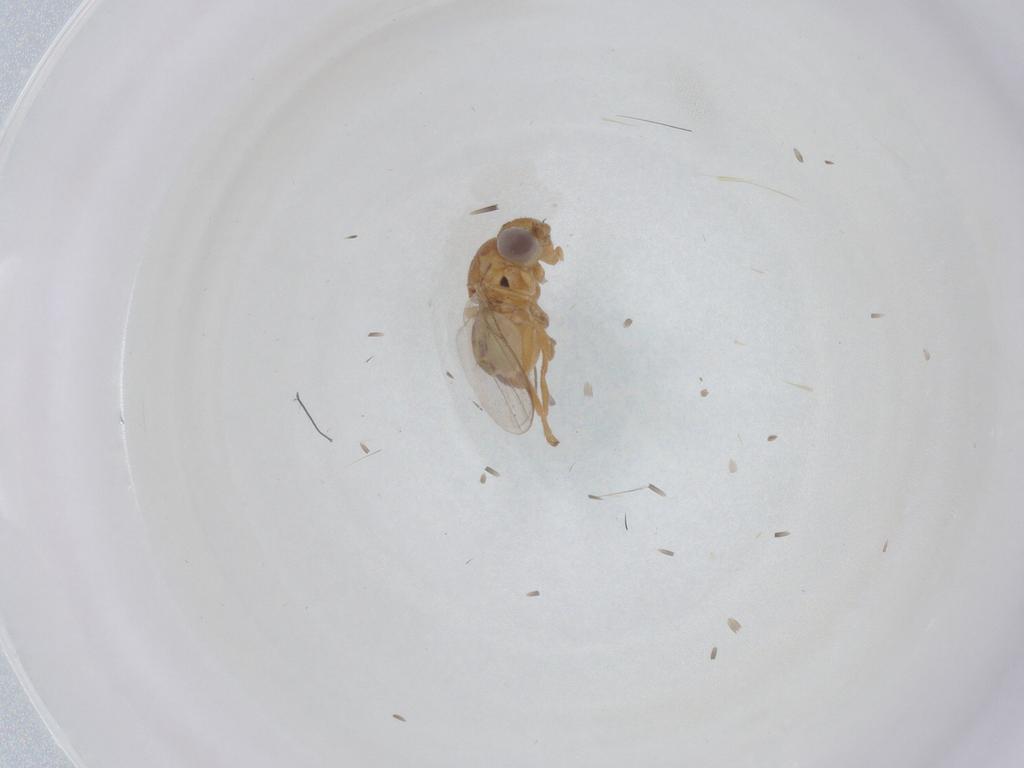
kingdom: Animalia
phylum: Arthropoda
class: Insecta
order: Diptera
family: Chloropidae
